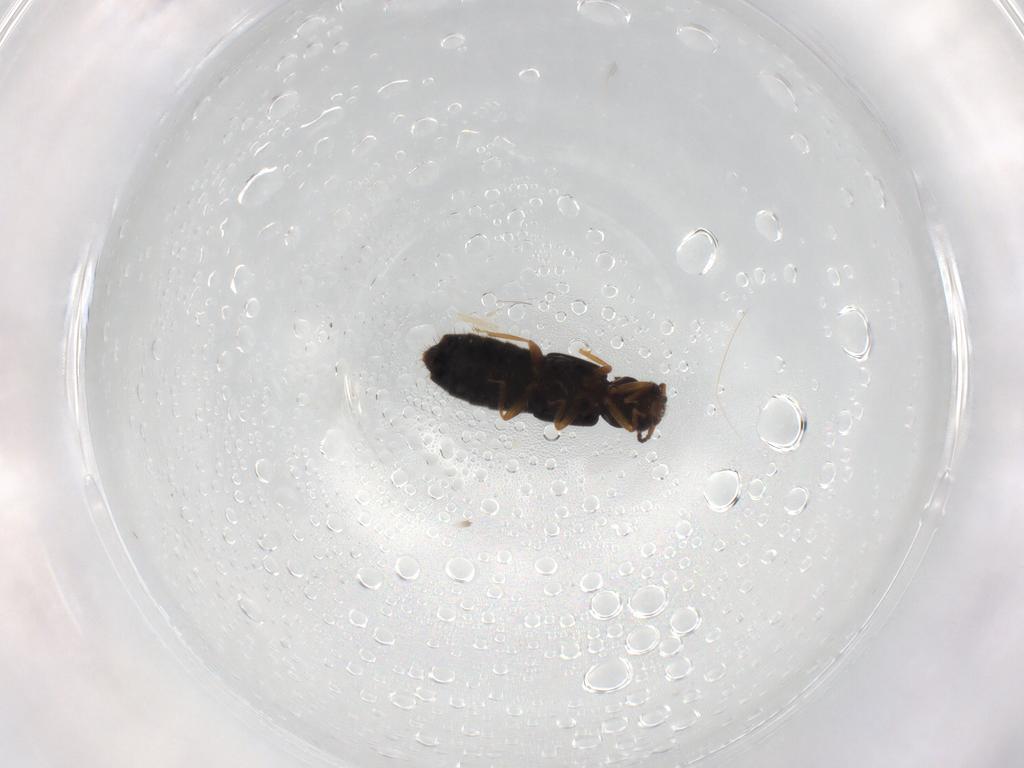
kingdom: Animalia
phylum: Arthropoda
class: Insecta
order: Coleoptera
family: Staphylinidae
